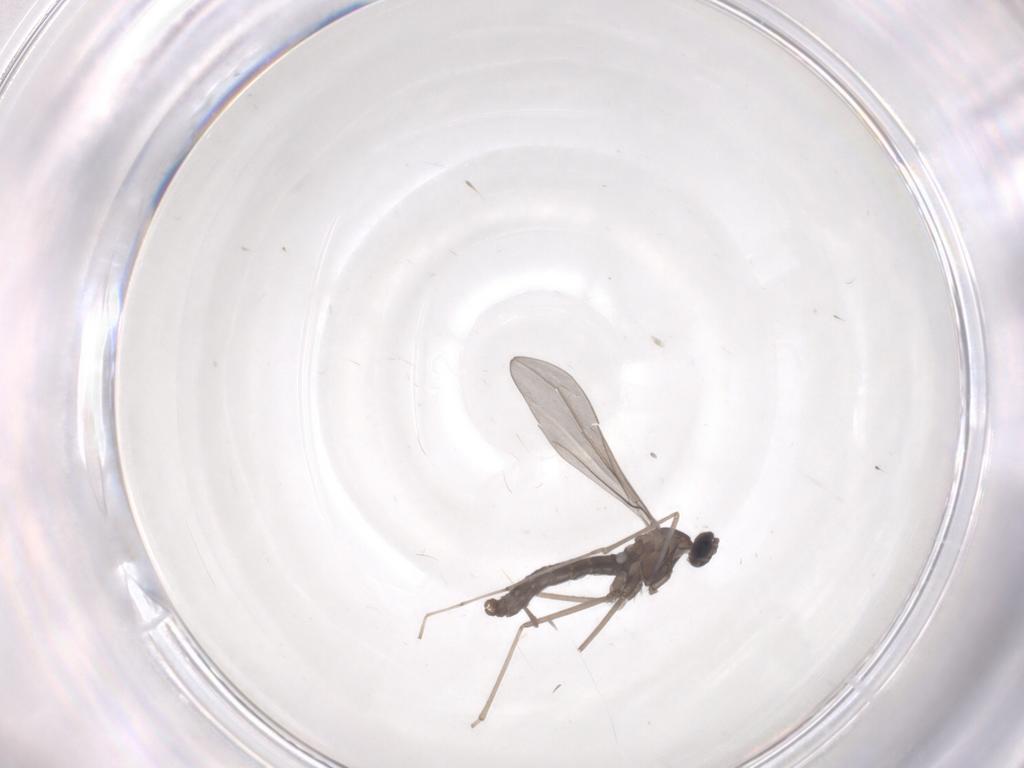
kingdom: Animalia
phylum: Arthropoda
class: Insecta
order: Diptera
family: Cecidomyiidae
